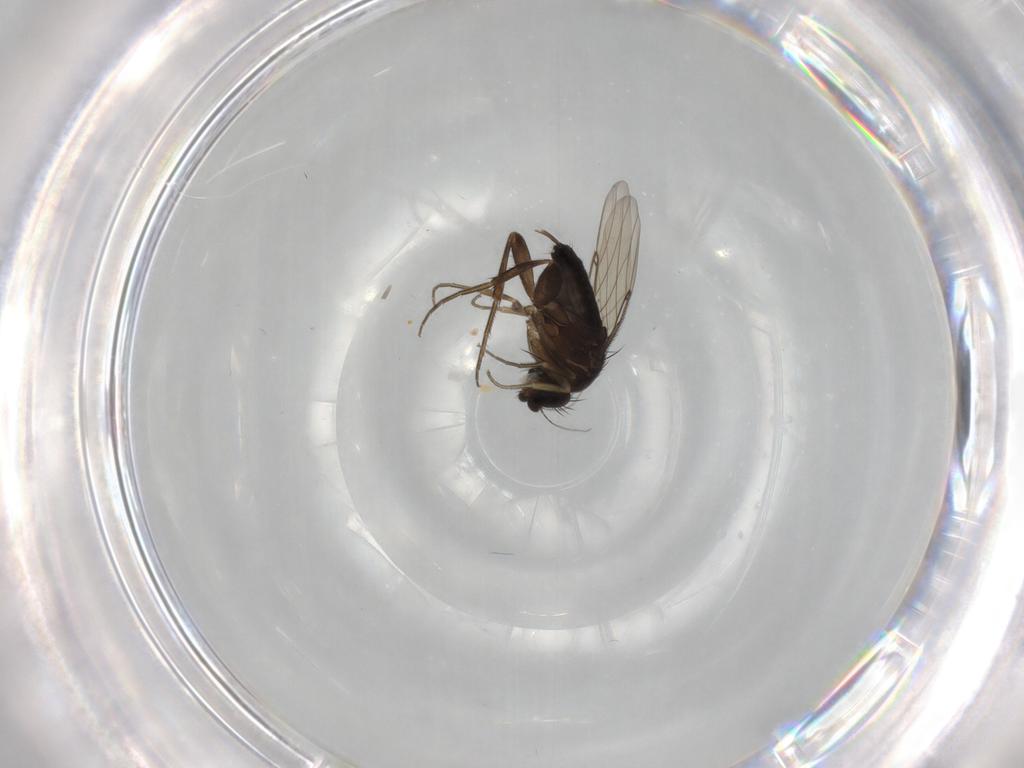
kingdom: Animalia
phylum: Arthropoda
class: Insecta
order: Diptera
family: Phoridae
